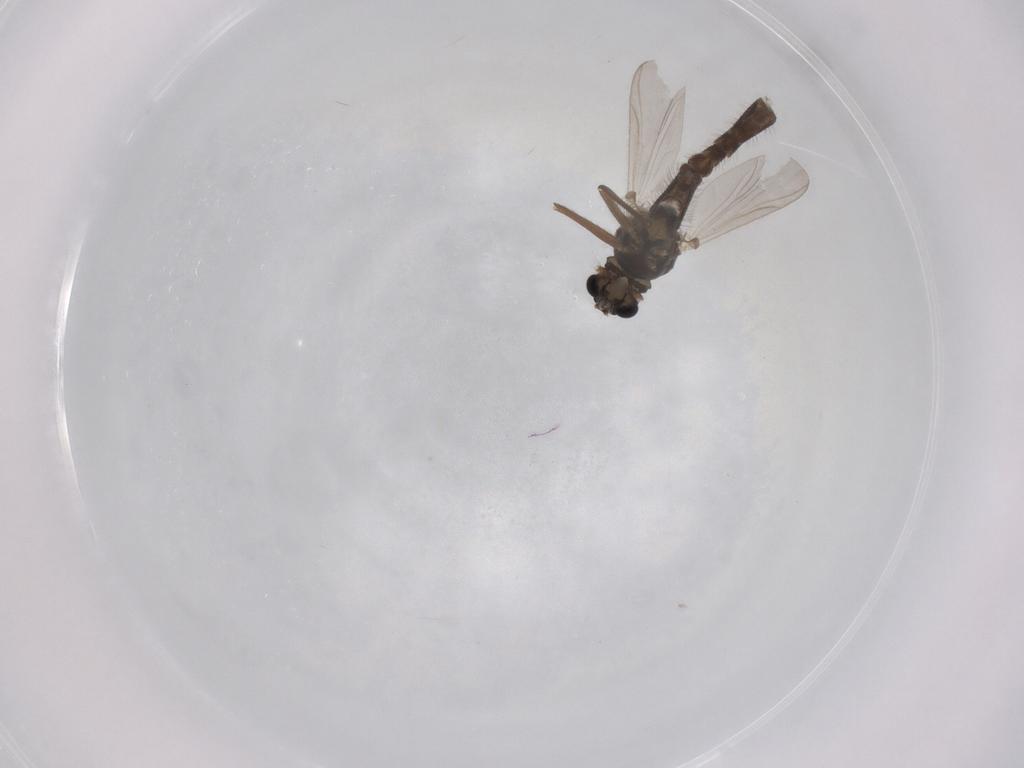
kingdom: Animalia
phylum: Arthropoda
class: Insecta
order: Diptera
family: Chironomidae
